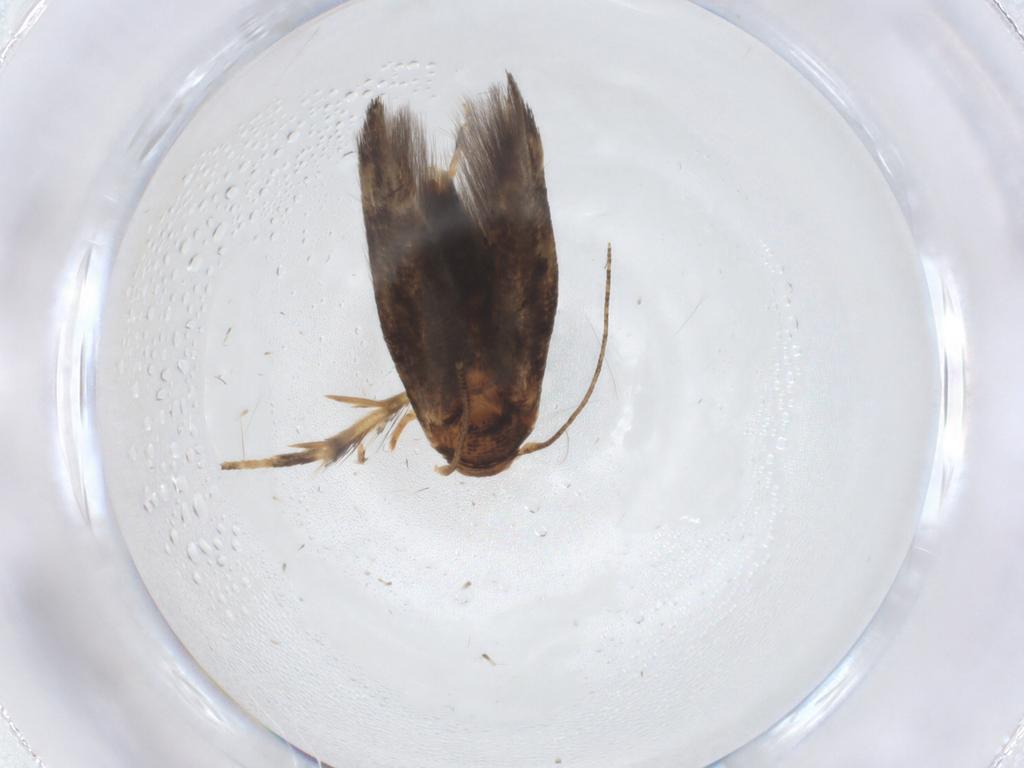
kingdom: Animalia
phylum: Arthropoda
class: Insecta
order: Lepidoptera
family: Momphidae
